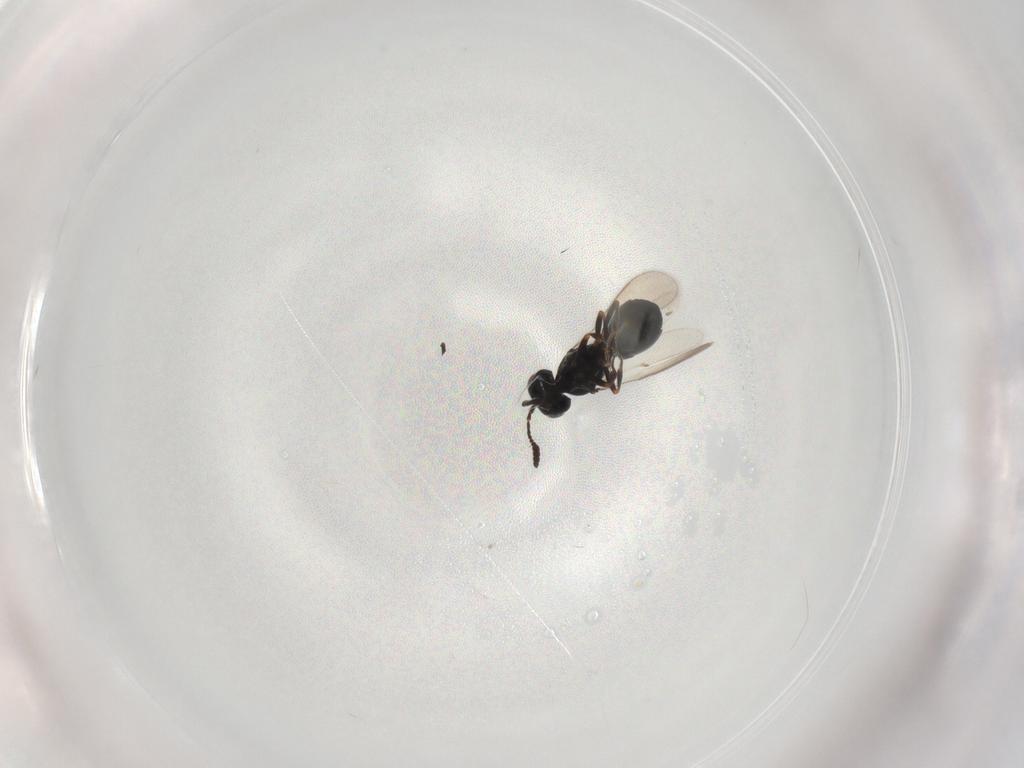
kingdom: Animalia
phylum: Arthropoda
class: Insecta
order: Hymenoptera
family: Scelionidae
